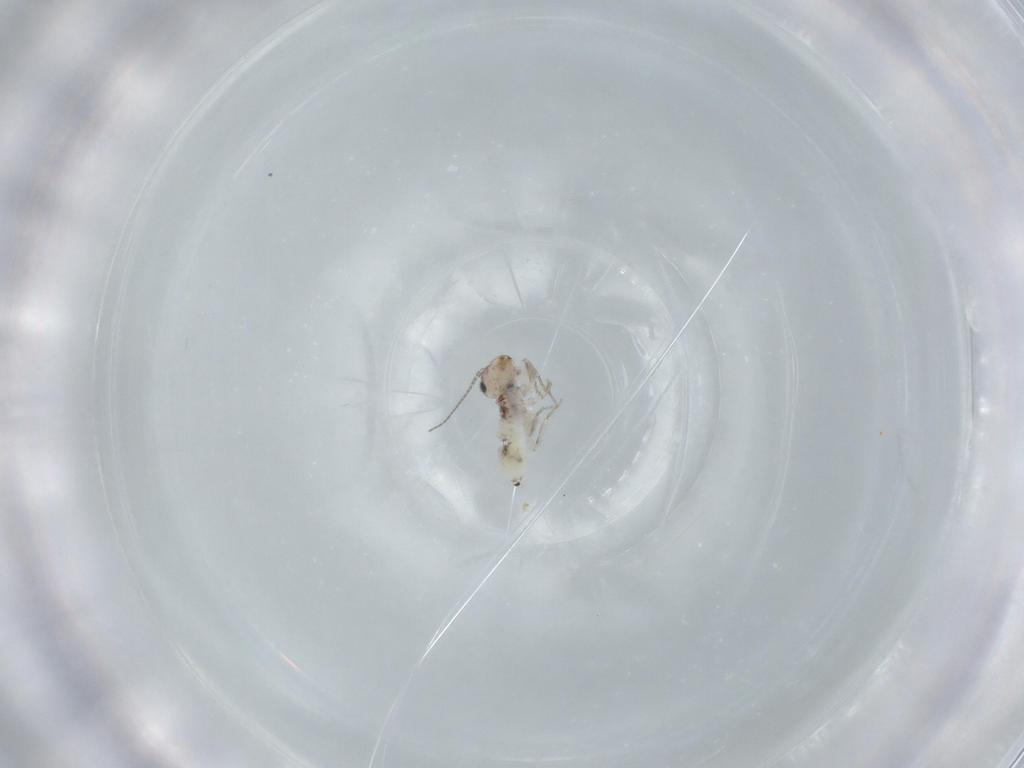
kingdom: Animalia
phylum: Arthropoda
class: Insecta
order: Psocodea
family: Lepidopsocidae
